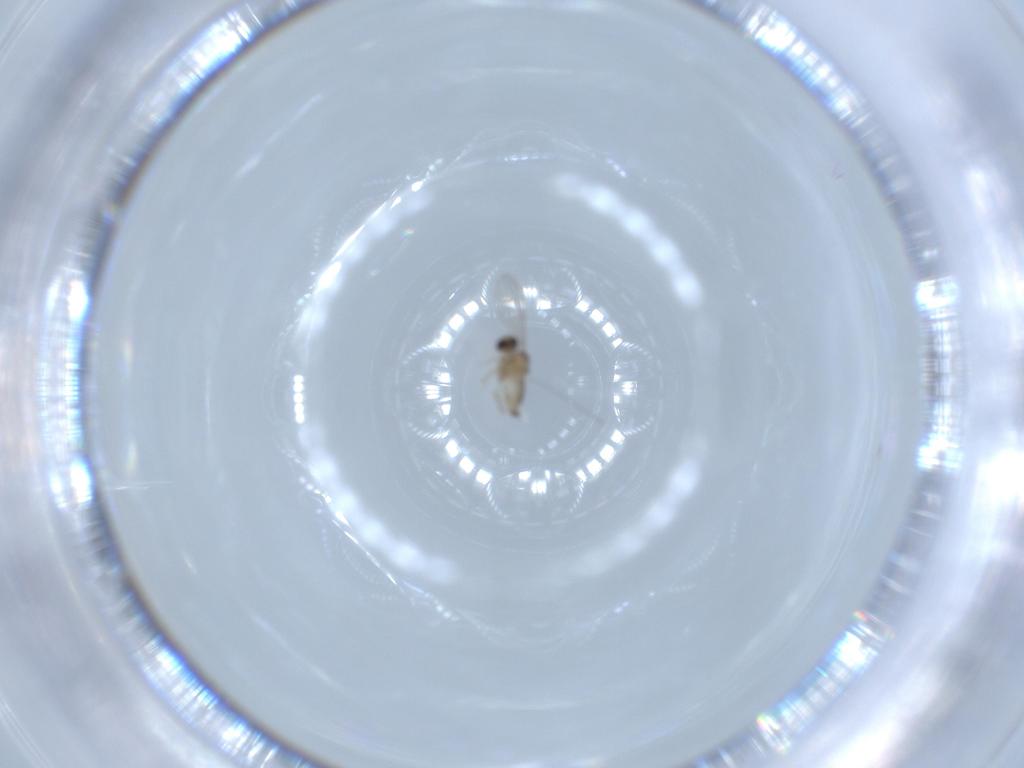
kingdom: Animalia
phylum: Arthropoda
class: Insecta
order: Diptera
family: Cecidomyiidae
